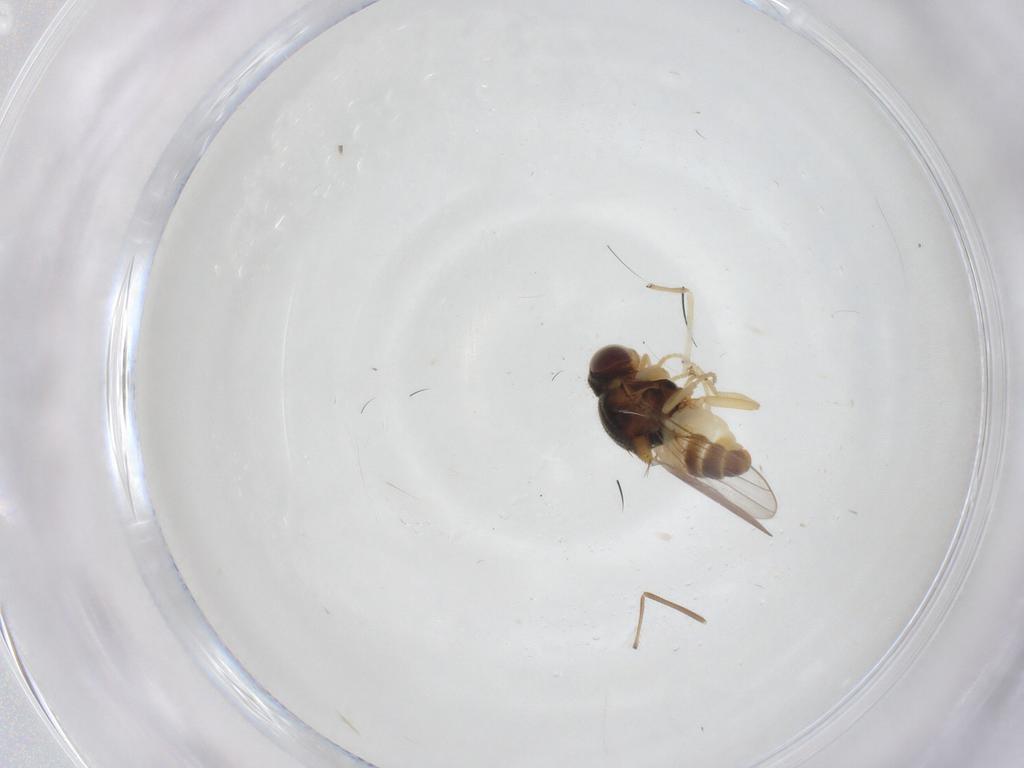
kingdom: Animalia
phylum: Arthropoda
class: Insecta
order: Diptera
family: Chloropidae
